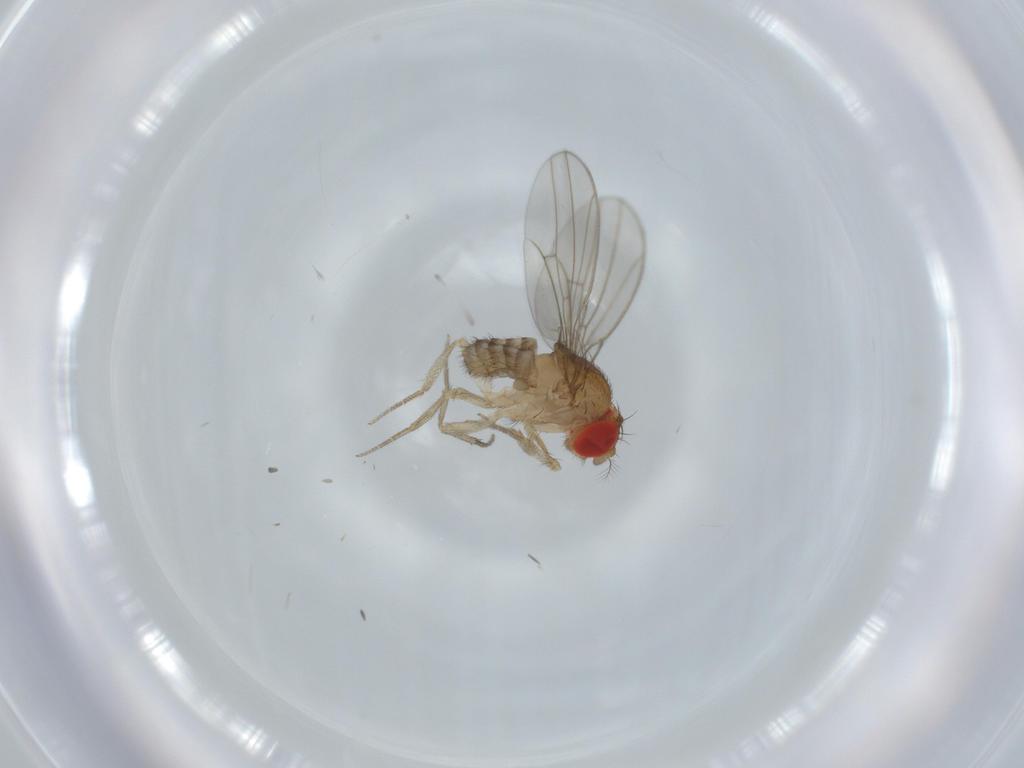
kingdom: Animalia
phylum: Arthropoda
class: Insecta
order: Diptera
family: Drosophilidae
